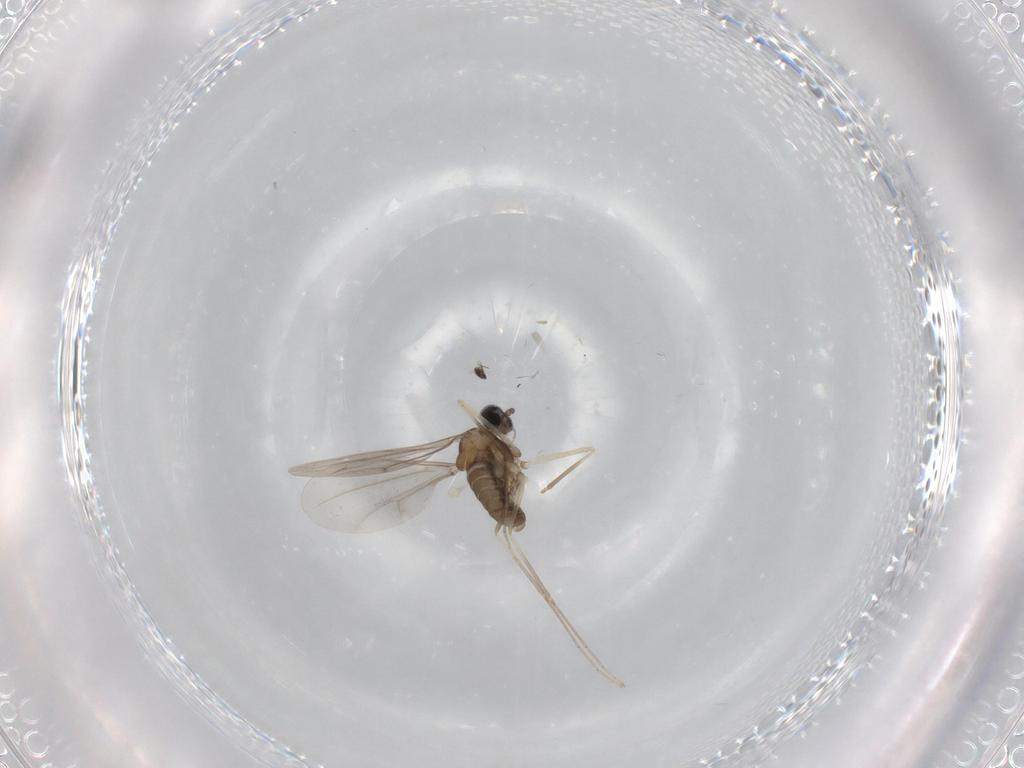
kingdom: Animalia
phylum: Arthropoda
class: Insecta
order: Diptera
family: Cecidomyiidae
